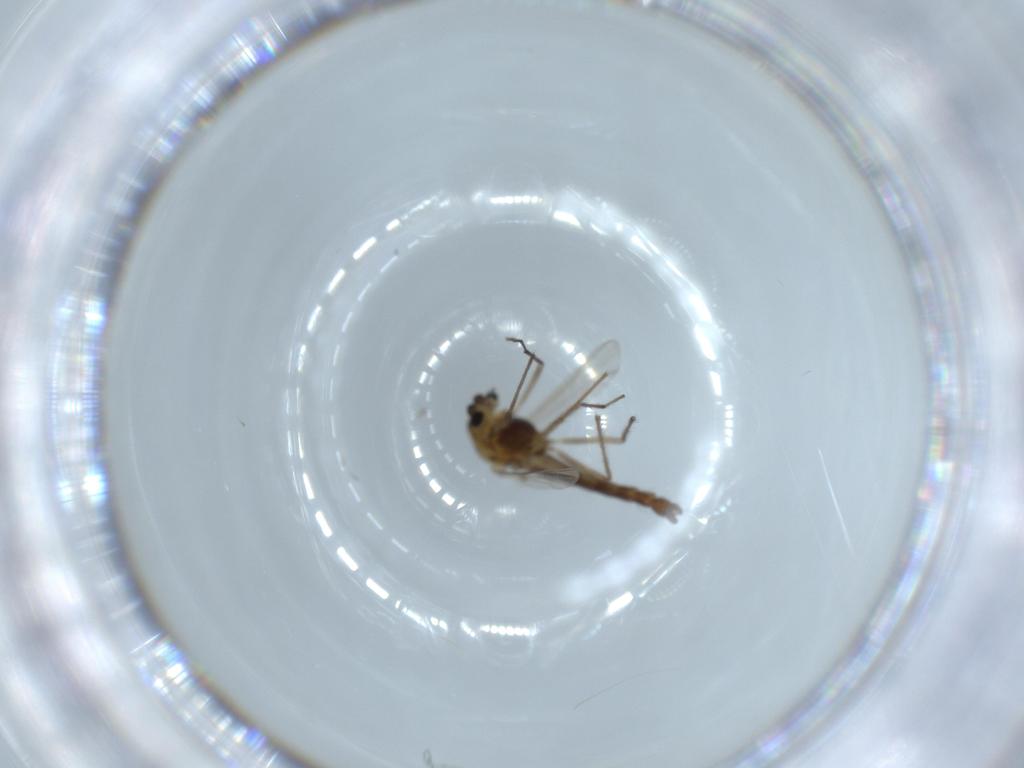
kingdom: Animalia
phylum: Arthropoda
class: Insecta
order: Diptera
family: Chironomidae
